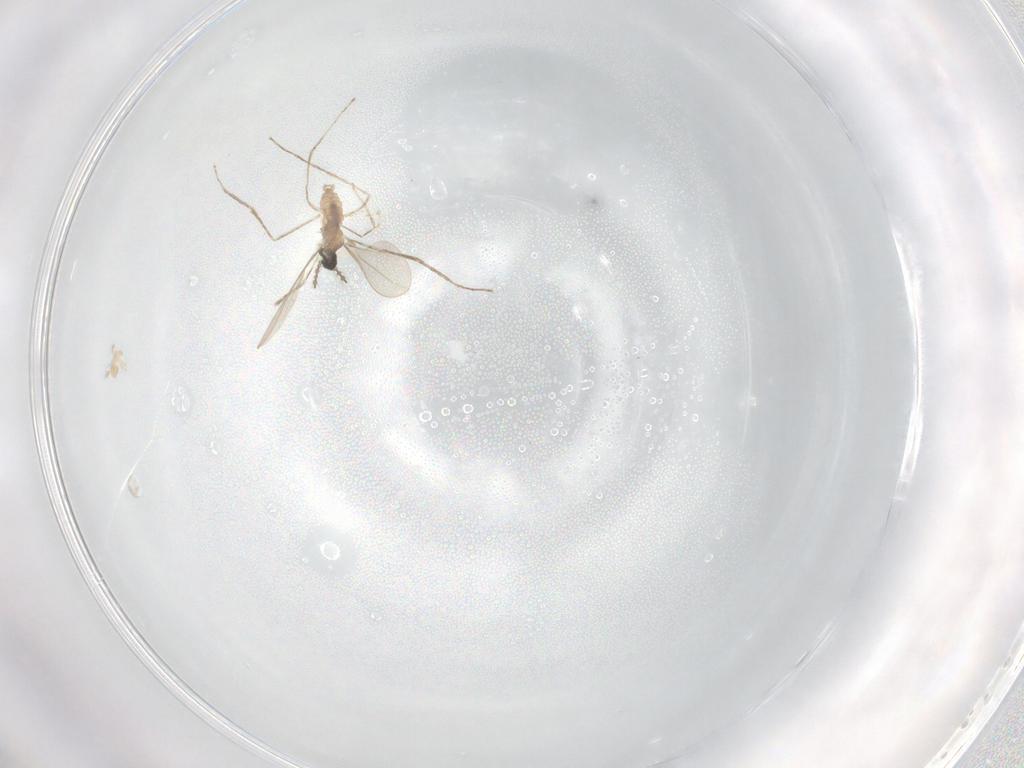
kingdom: Animalia
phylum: Arthropoda
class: Insecta
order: Diptera
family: Cecidomyiidae
